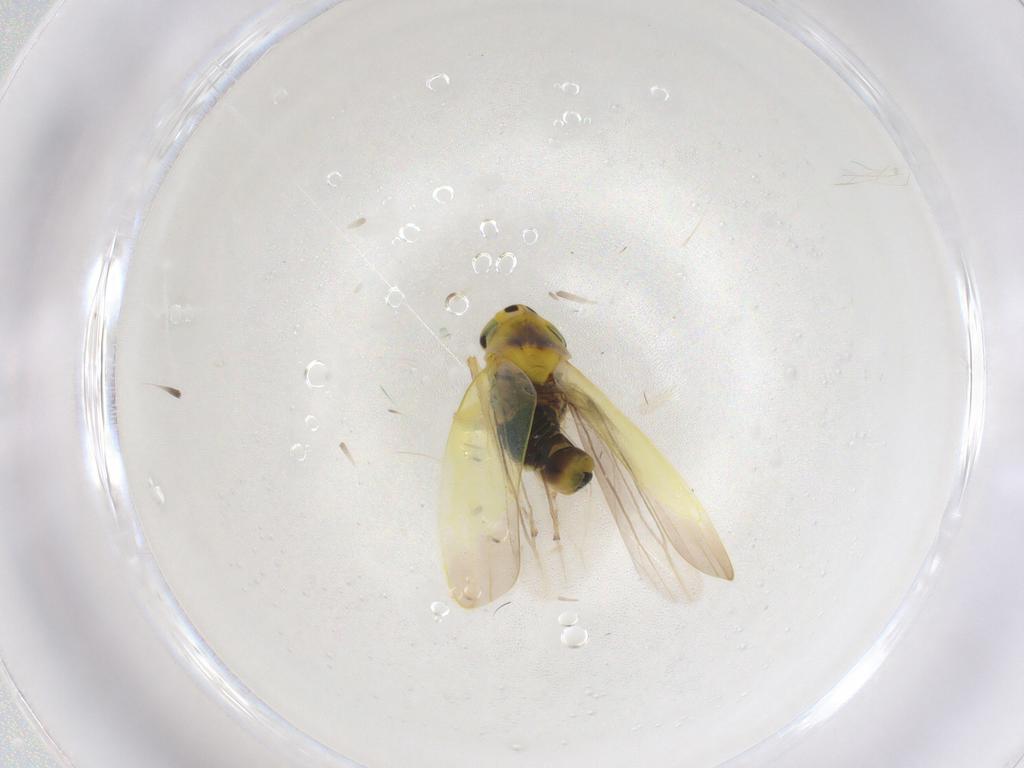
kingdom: Animalia
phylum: Arthropoda
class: Insecta
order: Hemiptera
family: Cicadellidae
